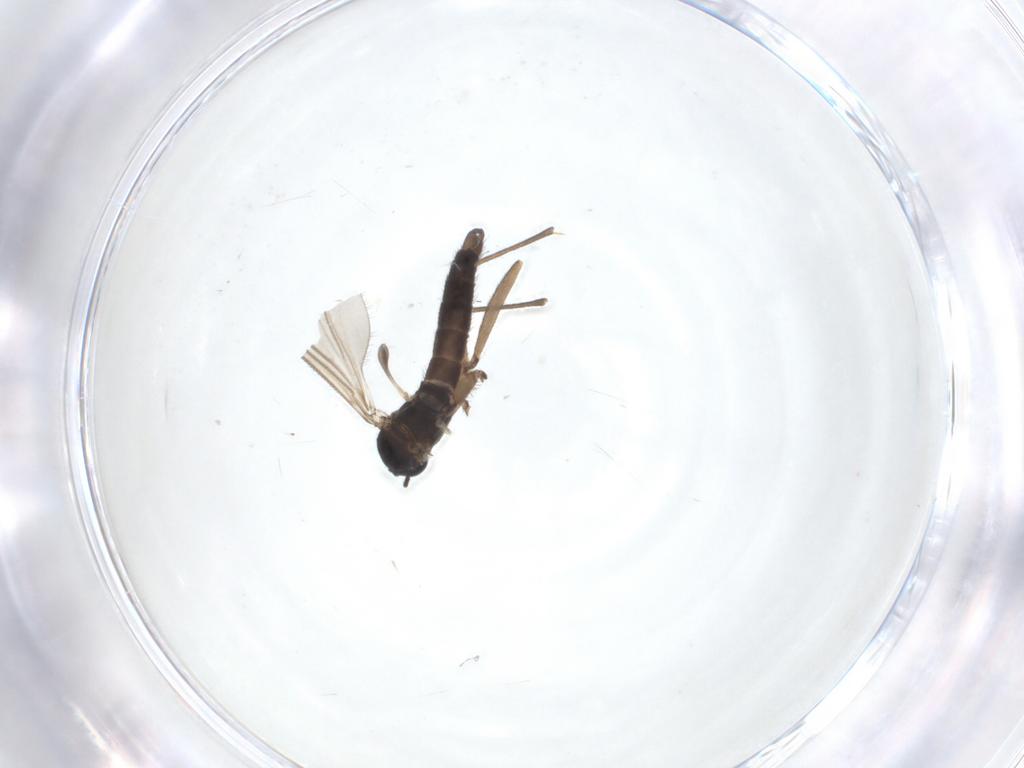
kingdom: Animalia
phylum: Arthropoda
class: Insecta
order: Diptera
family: Sciaridae
